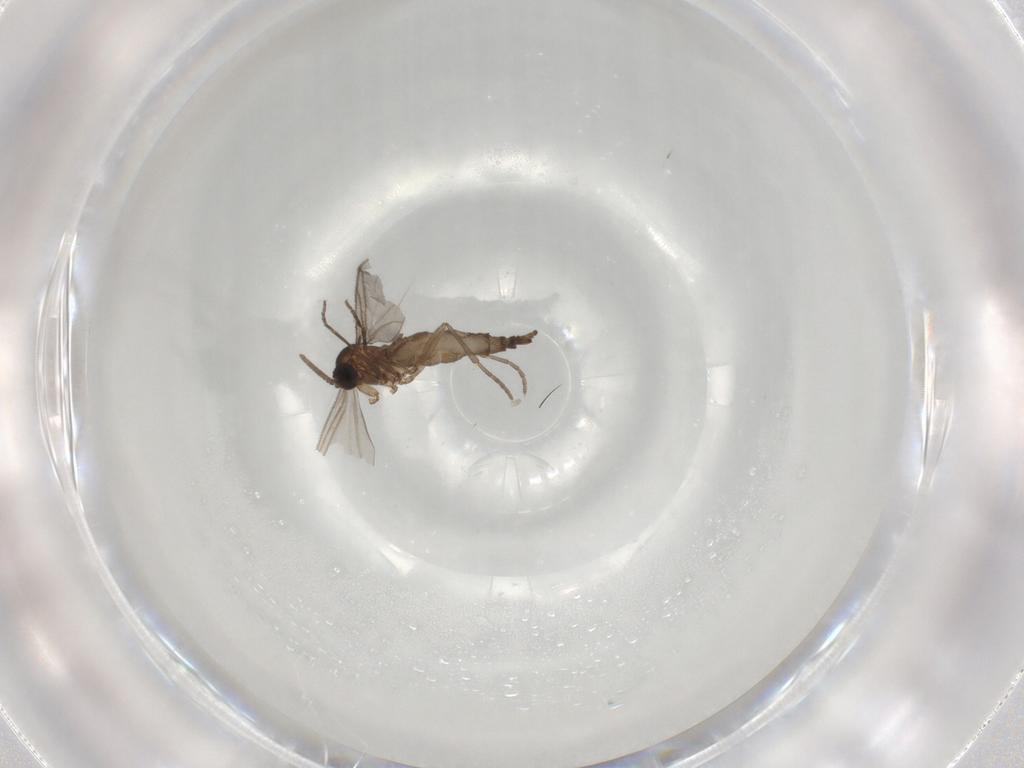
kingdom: Animalia
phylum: Arthropoda
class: Insecta
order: Diptera
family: Sciaridae
